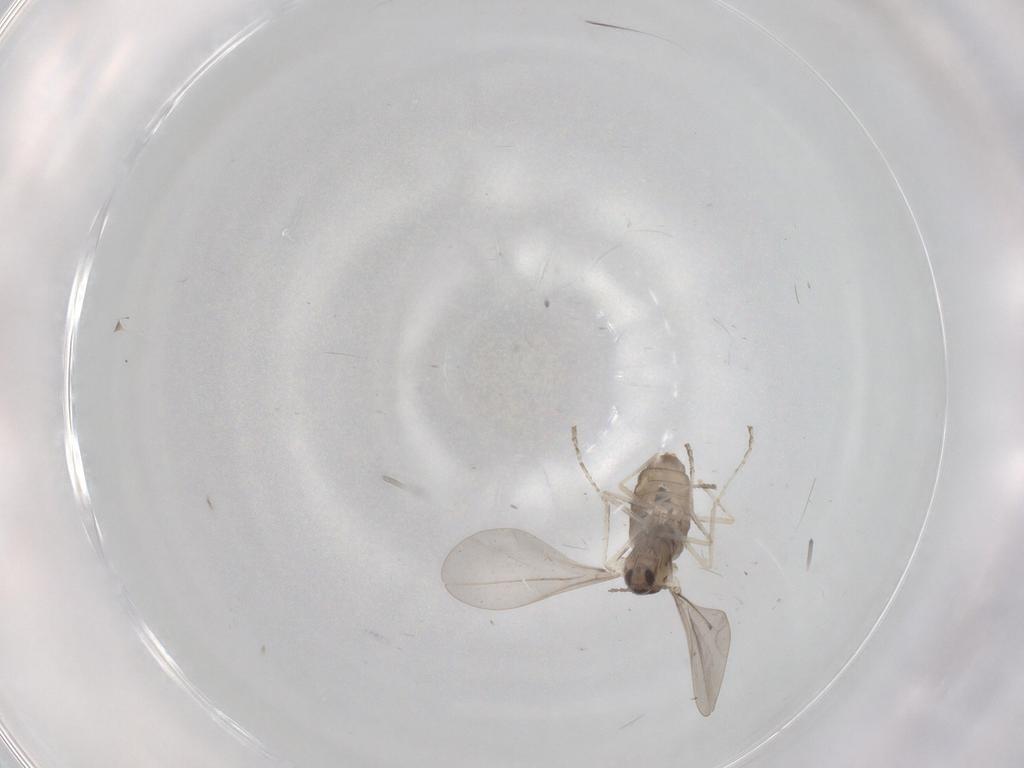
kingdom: Animalia
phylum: Arthropoda
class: Insecta
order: Diptera
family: Cecidomyiidae
